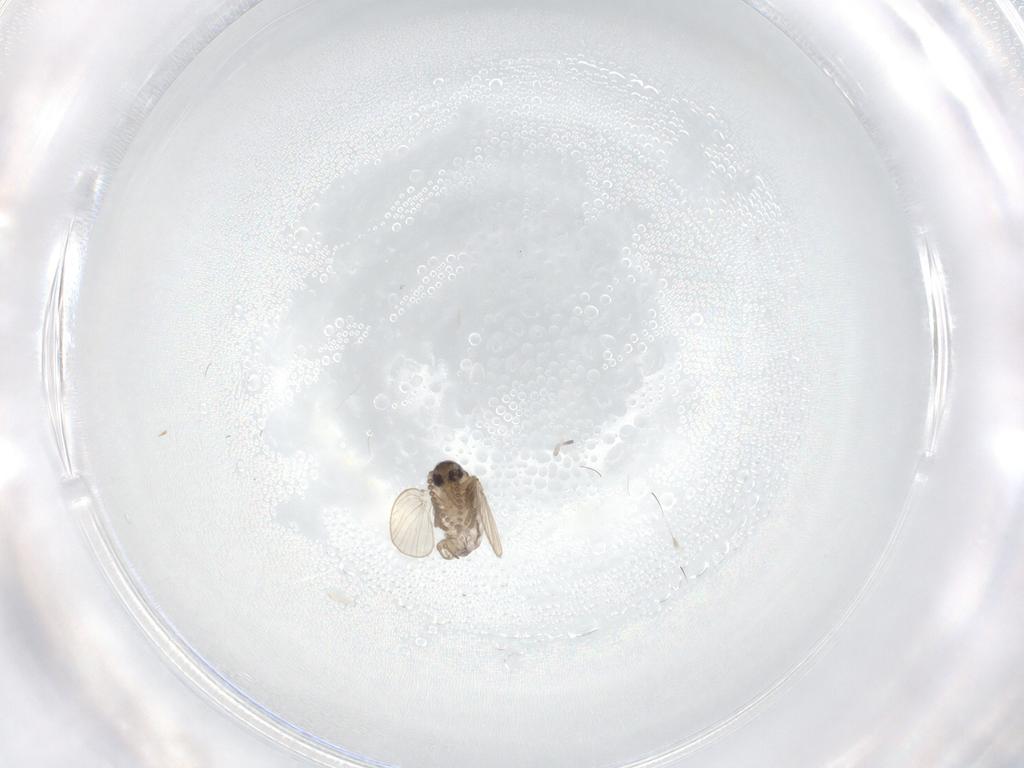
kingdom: Animalia
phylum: Arthropoda
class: Insecta
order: Diptera
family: Psychodidae
